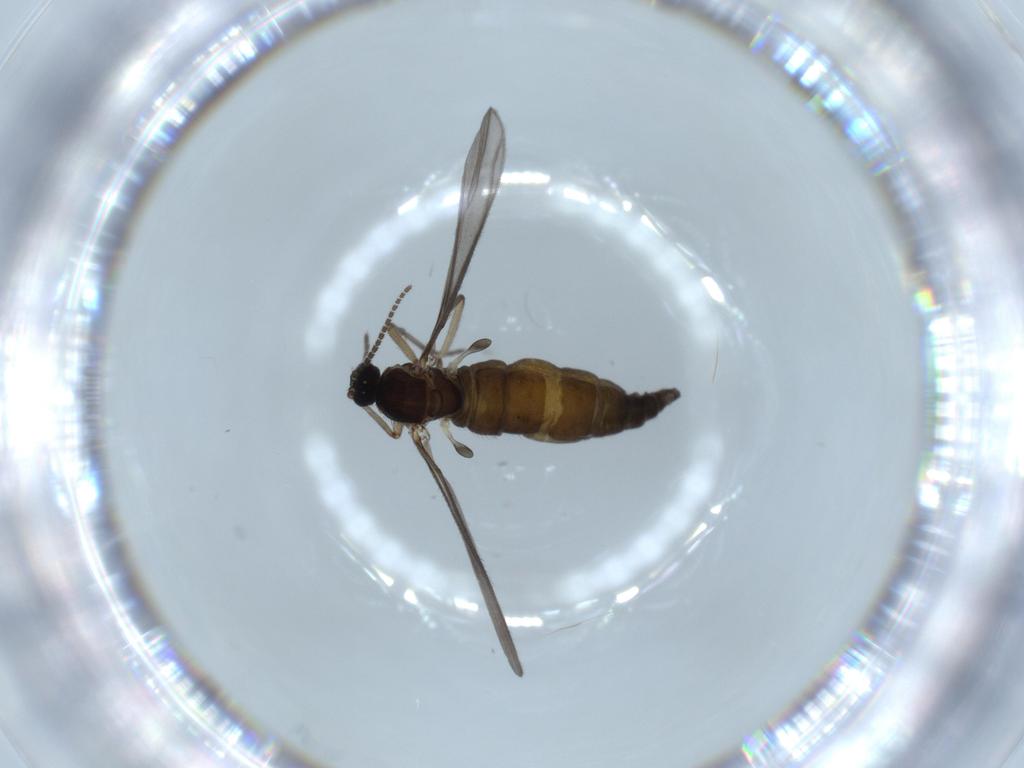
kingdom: Animalia
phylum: Arthropoda
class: Insecta
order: Diptera
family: Sciaridae
